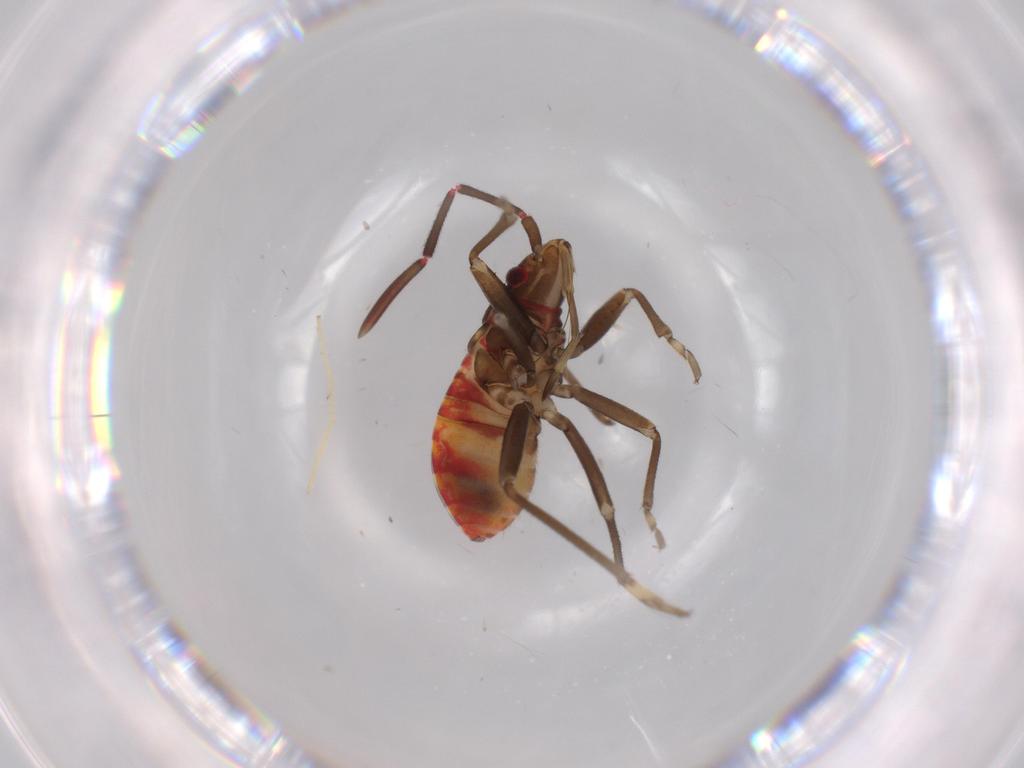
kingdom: Animalia
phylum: Arthropoda
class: Insecta
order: Hemiptera
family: Rhyparochromidae
